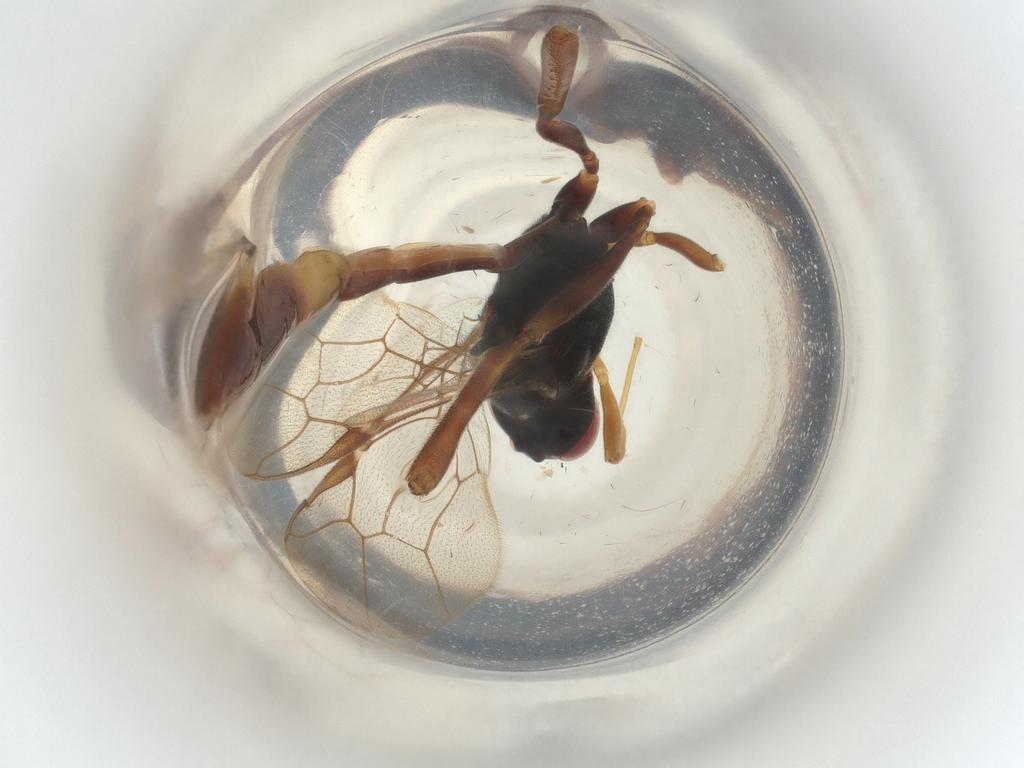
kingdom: Animalia
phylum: Arthropoda
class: Insecta
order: Hymenoptera
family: Ichneumonidae
